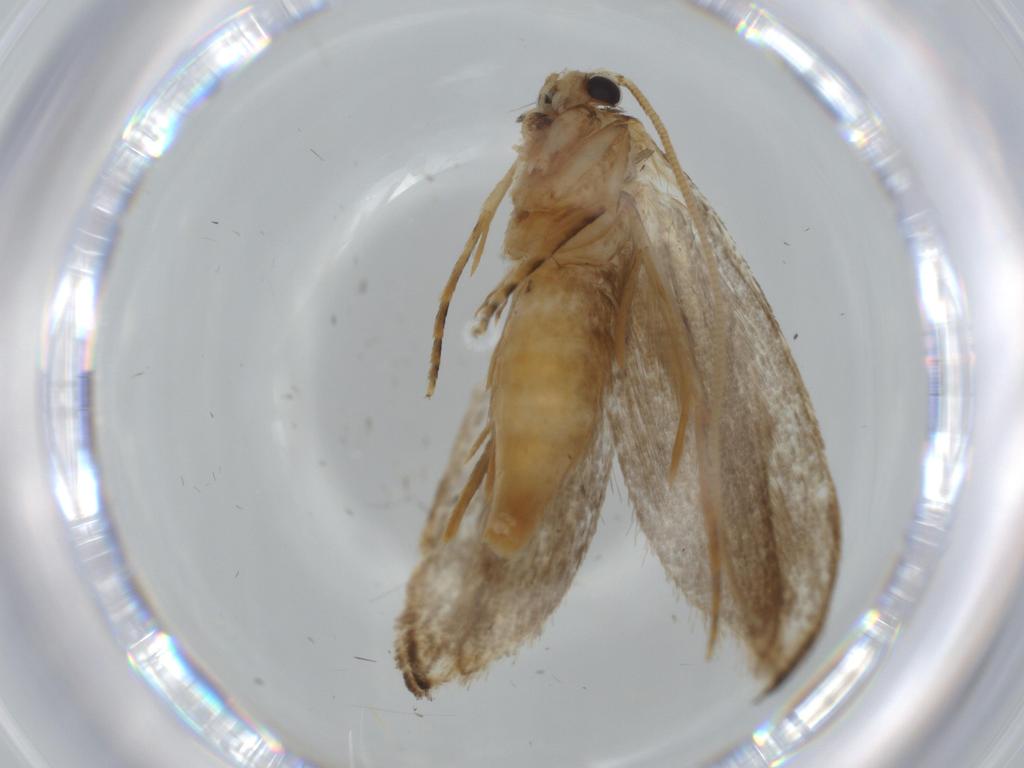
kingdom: Animalia
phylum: Arthropoda
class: Insecta
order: Lepidoptera
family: Tineidae
